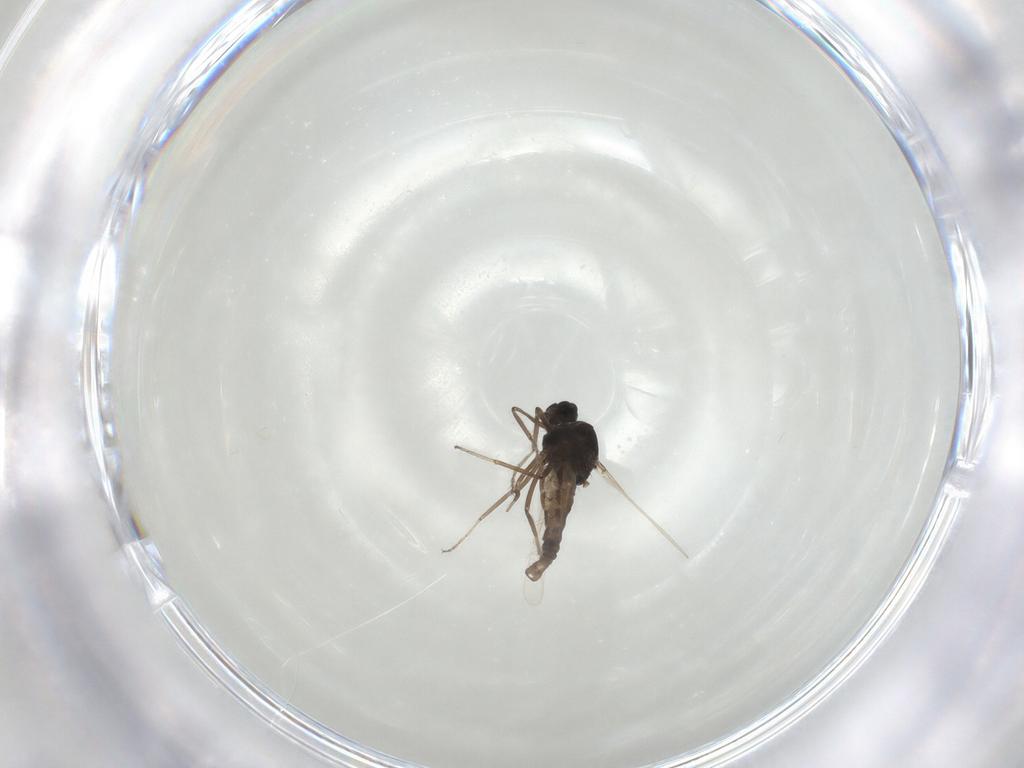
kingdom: Animalia
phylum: Arthropoda
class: Insecta
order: Diptera
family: Ceratopogonidae
